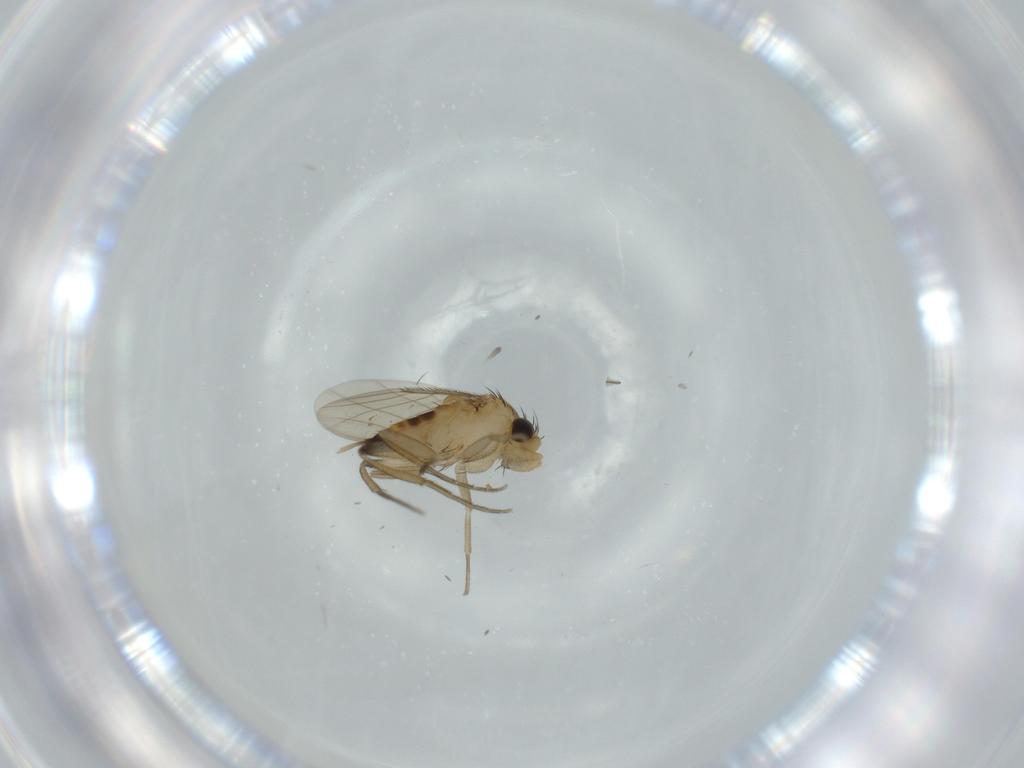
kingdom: Animalia
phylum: Arthropoda
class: Insecta
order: Diptera
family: Phoridae
